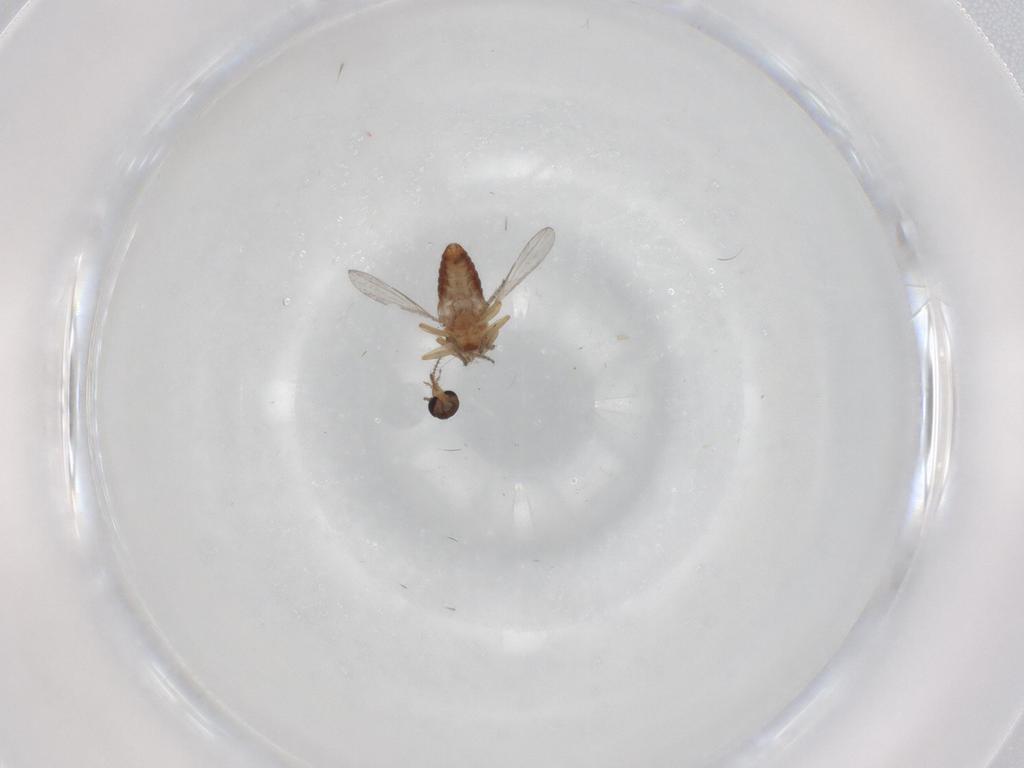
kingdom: Animalia
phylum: Arthropoda
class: Insecta
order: Diptera
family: Ceratopogonidae
